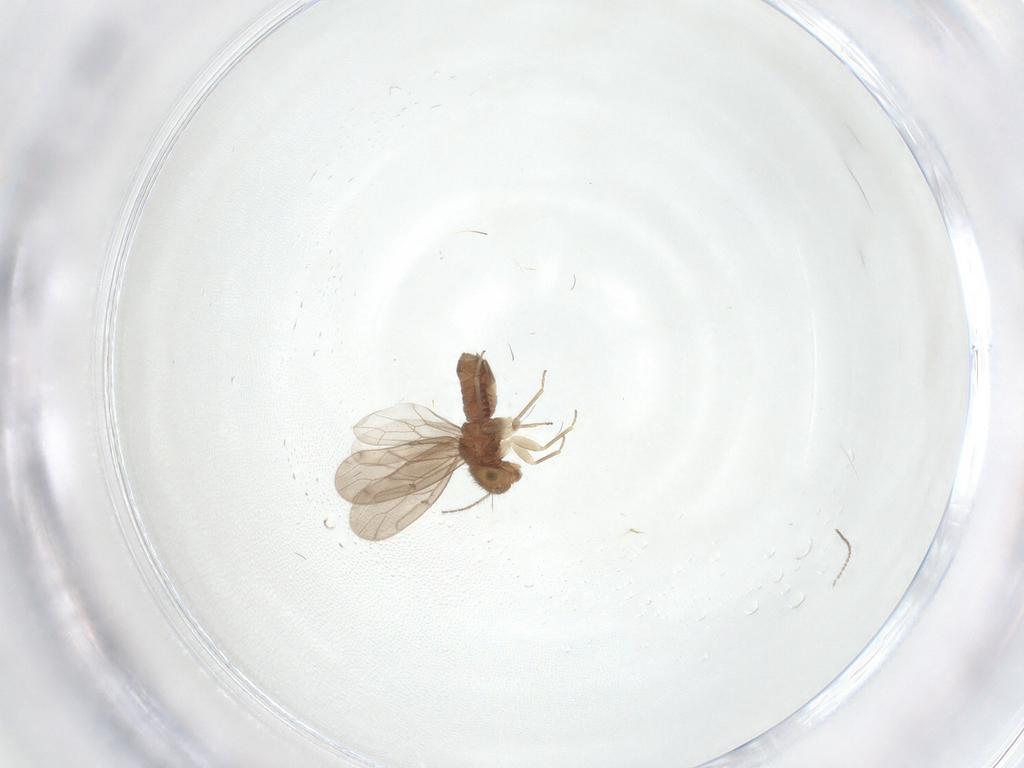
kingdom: Animalia
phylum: Arthropoda
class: Insecta
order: Psocodea
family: Ectopsocidae
